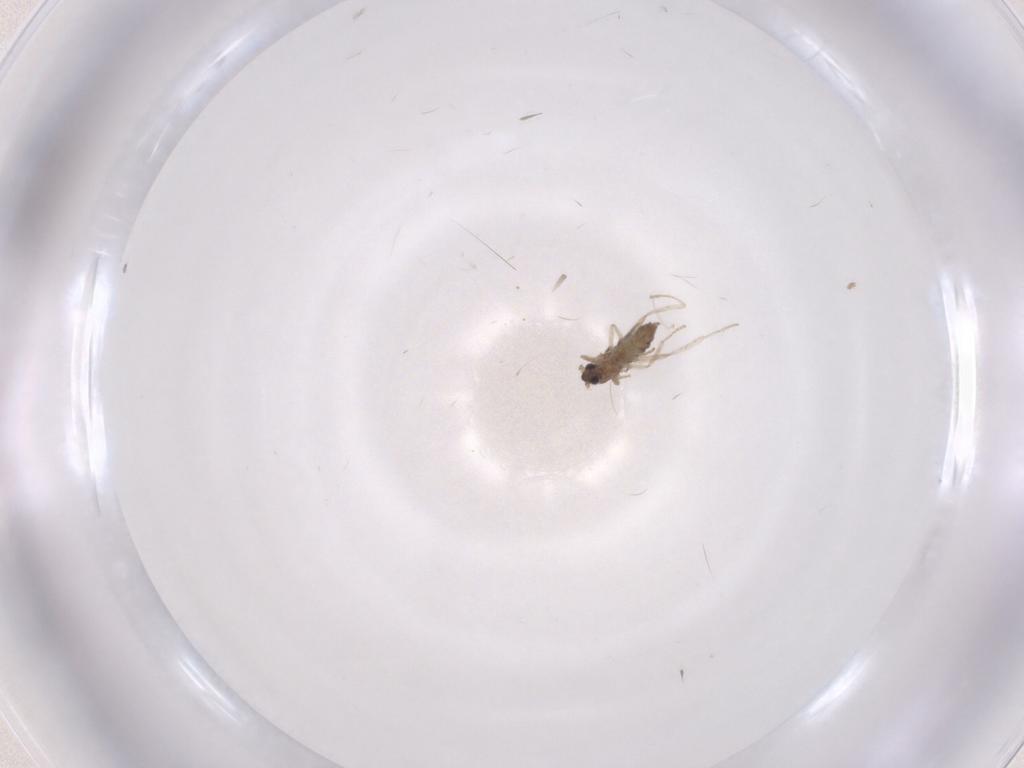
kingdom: Animalia
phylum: Arthropoda
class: Insecta
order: Diptera
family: Cecidomyiidae
